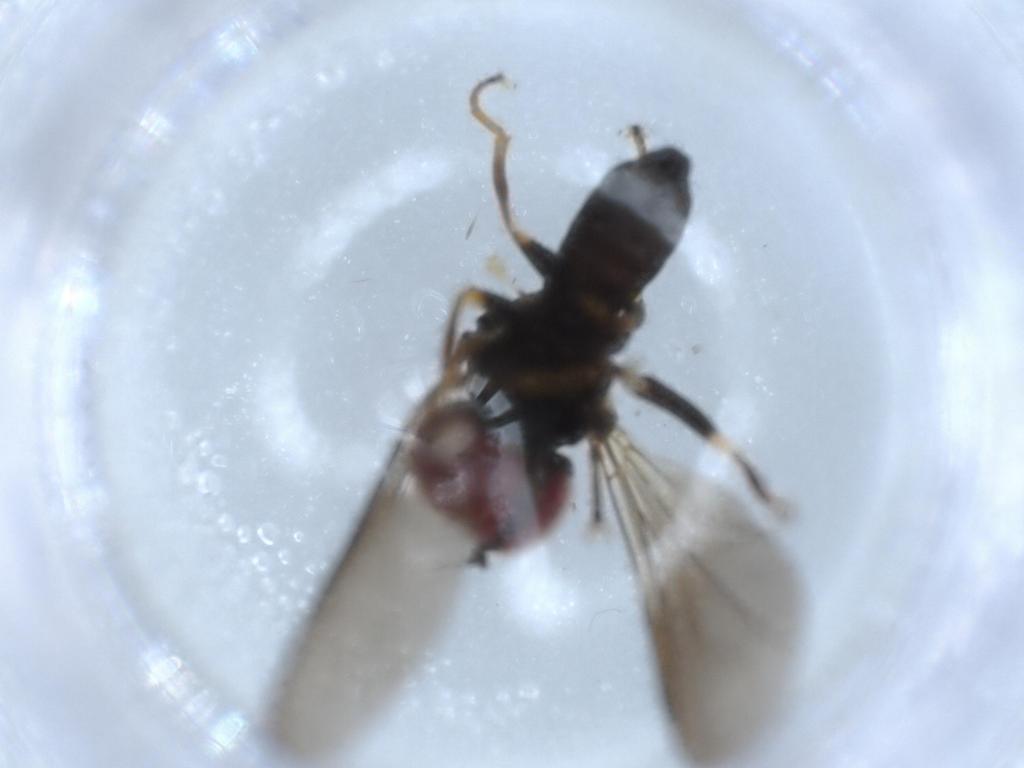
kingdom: Animalia
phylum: Arthropoda
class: Insecta
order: Diptera
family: Pipunculidae
